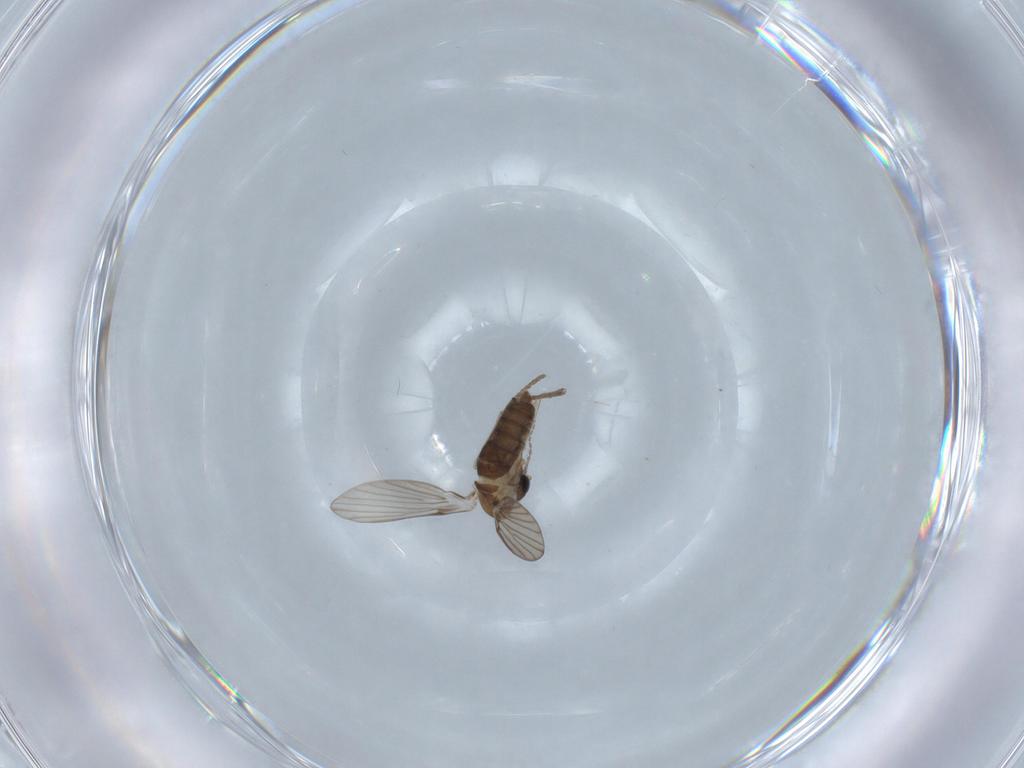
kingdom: Animalia
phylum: Arthropoda
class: Insecta
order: Diptera
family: Psychodidae
